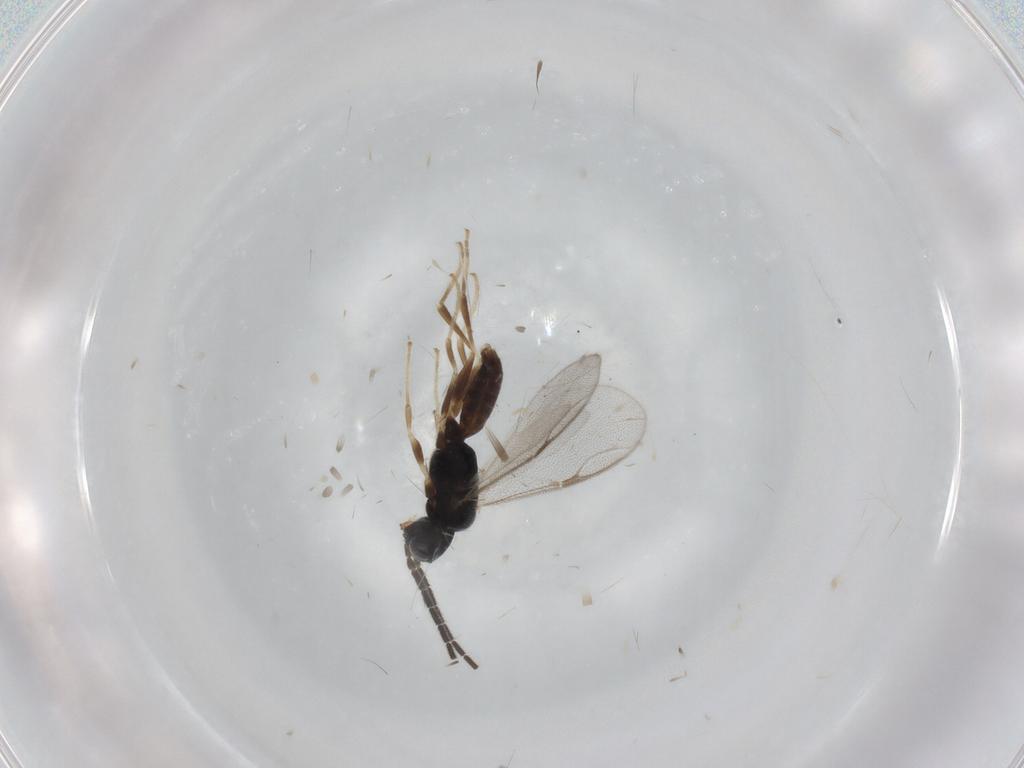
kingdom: Animalia
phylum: Arthropoda
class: Insecta
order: Hymenoptera
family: Dryinidae
